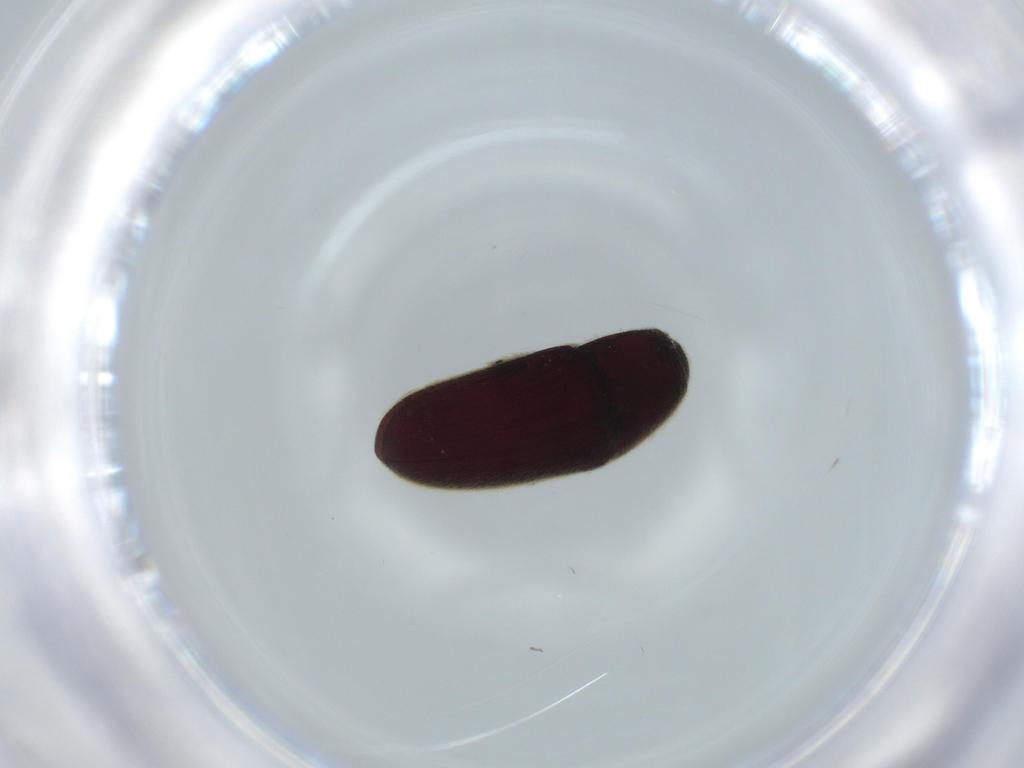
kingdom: Animalia
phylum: Arthropoda
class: Insecta
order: Coleoptera
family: Throscidae
